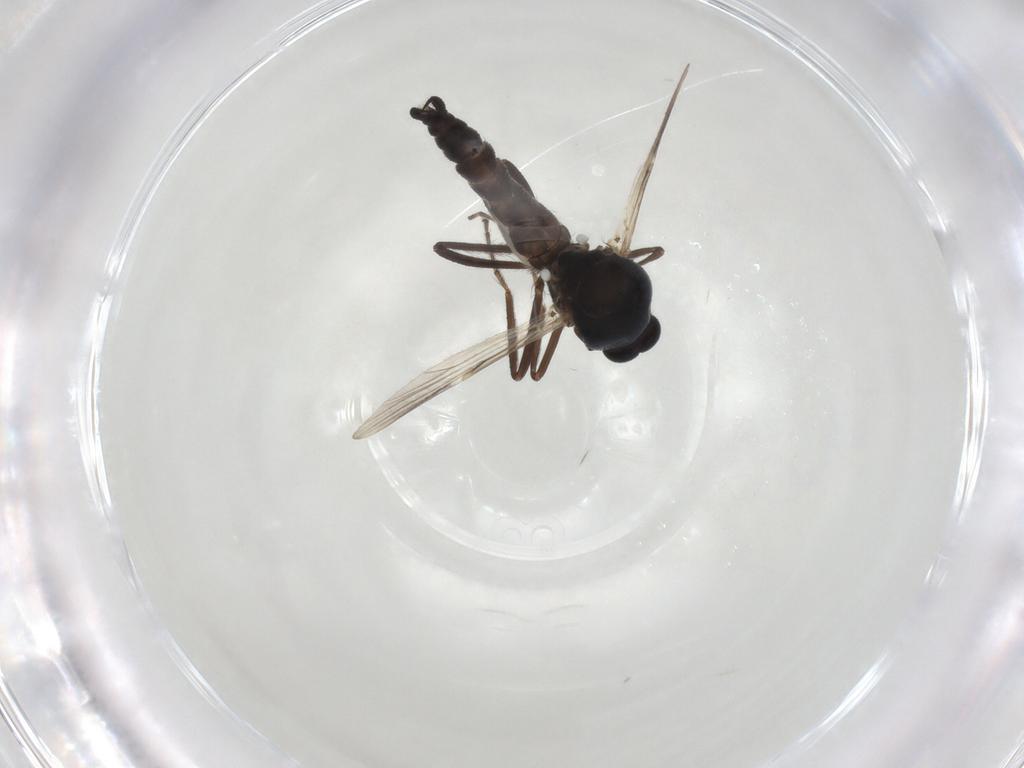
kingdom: Animalia
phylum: Arthropoda
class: Insecta
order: Diptera
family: Ceratopogonidae
